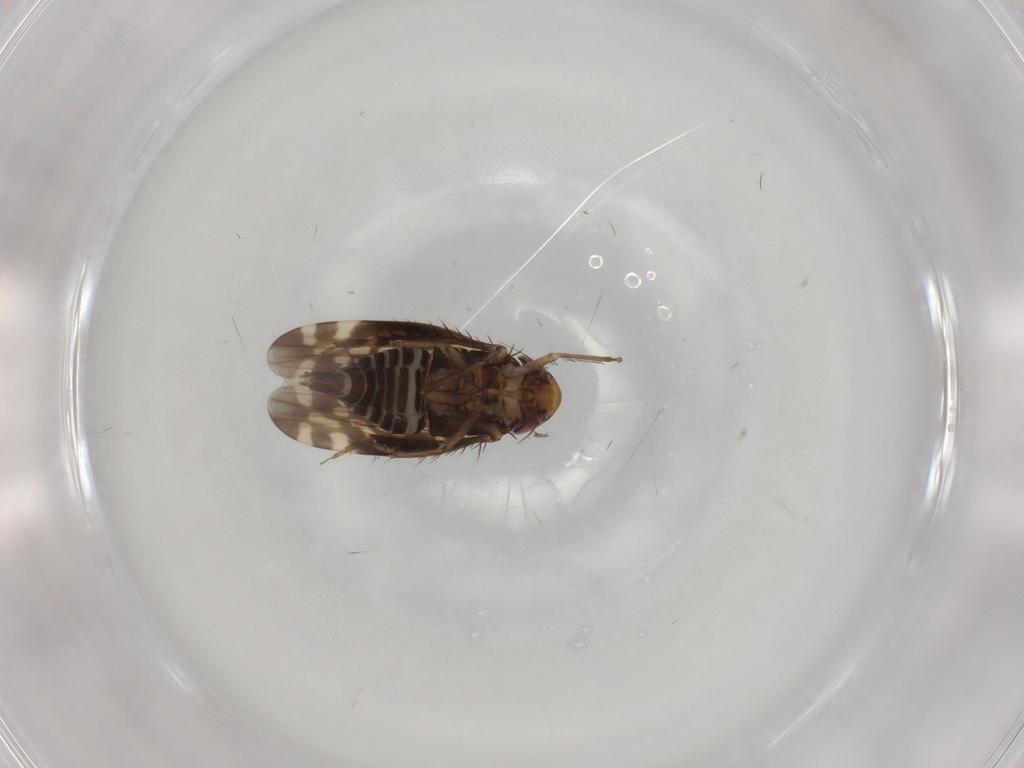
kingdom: Animalia
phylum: Arthropoda
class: Insecta
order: Hemiptera
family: Cicadellidae
